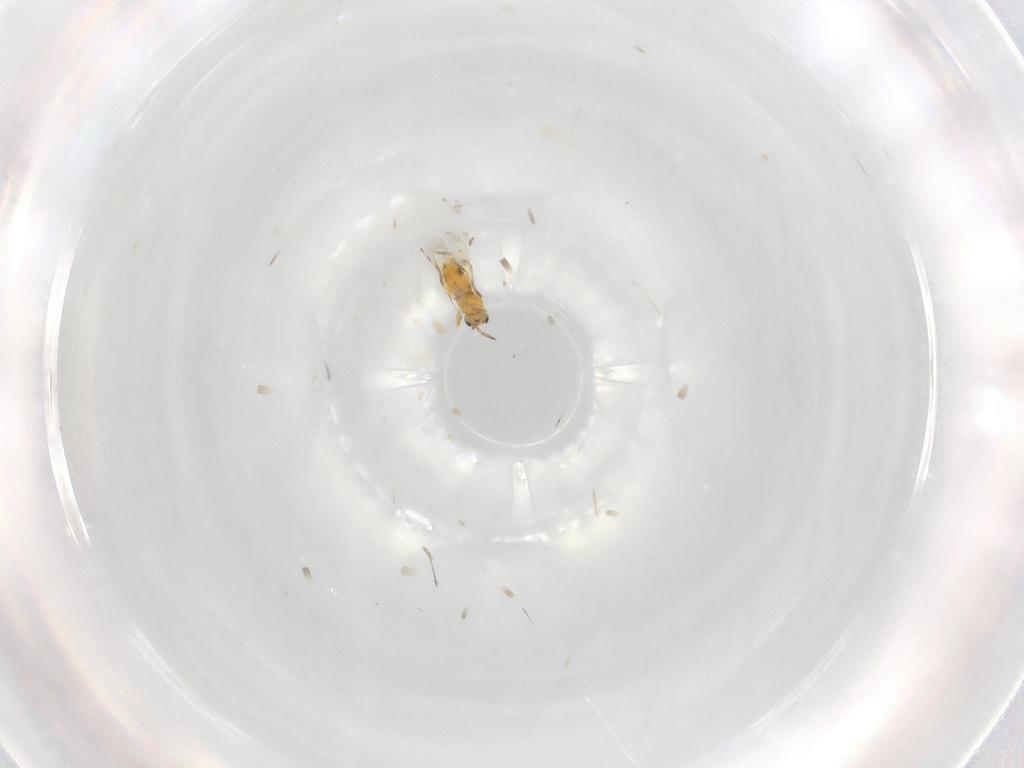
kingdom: Animalia
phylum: Arthropoda
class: Insecta
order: Hymenoptera
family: Aphelinidae
